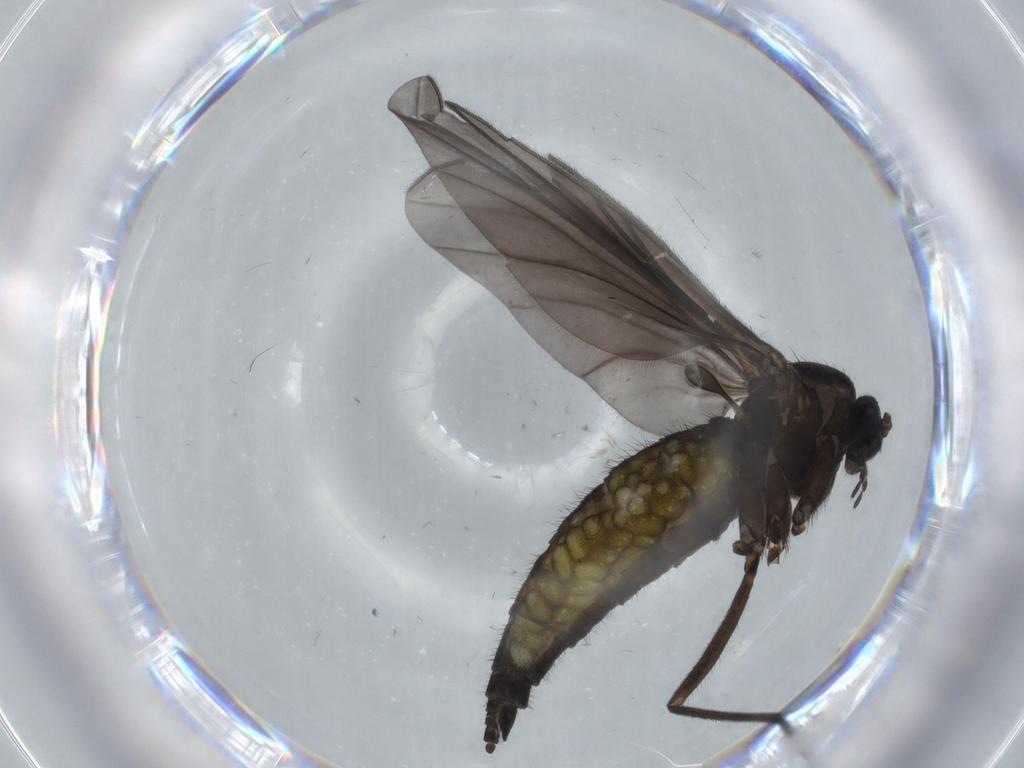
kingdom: Animalia
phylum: Arthropoda
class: Insecta
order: Diptera
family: Sciaridae
